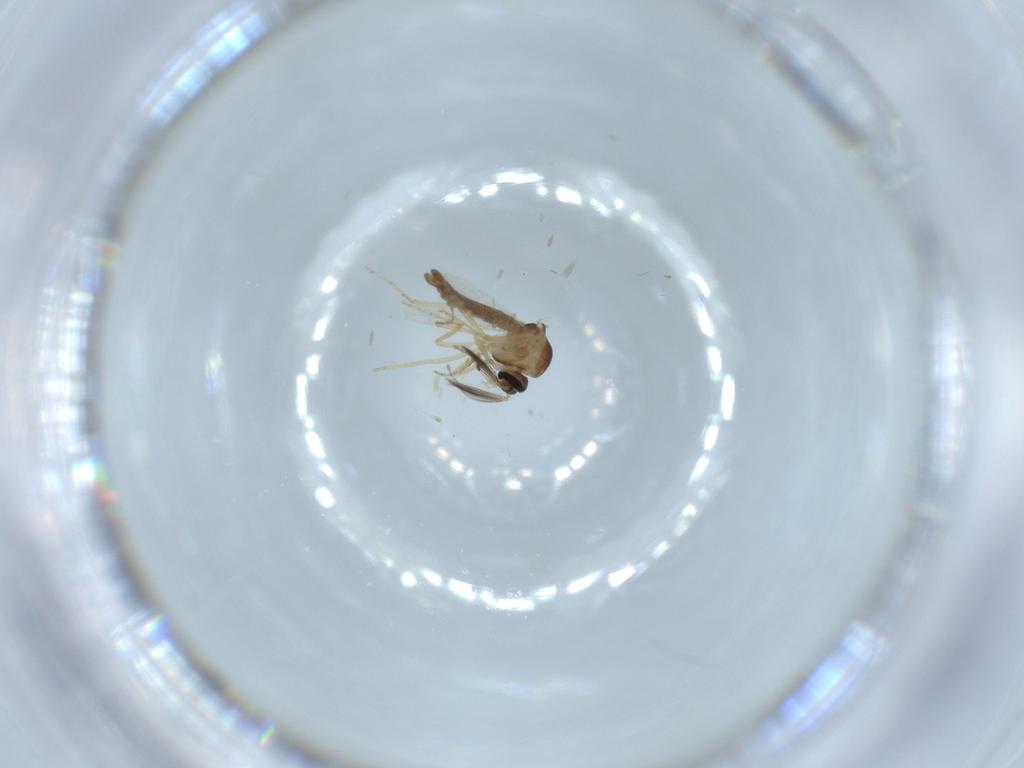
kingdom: Animalia
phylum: Arthropoda
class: Insecta
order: Diptera
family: Ceratopogonidae
